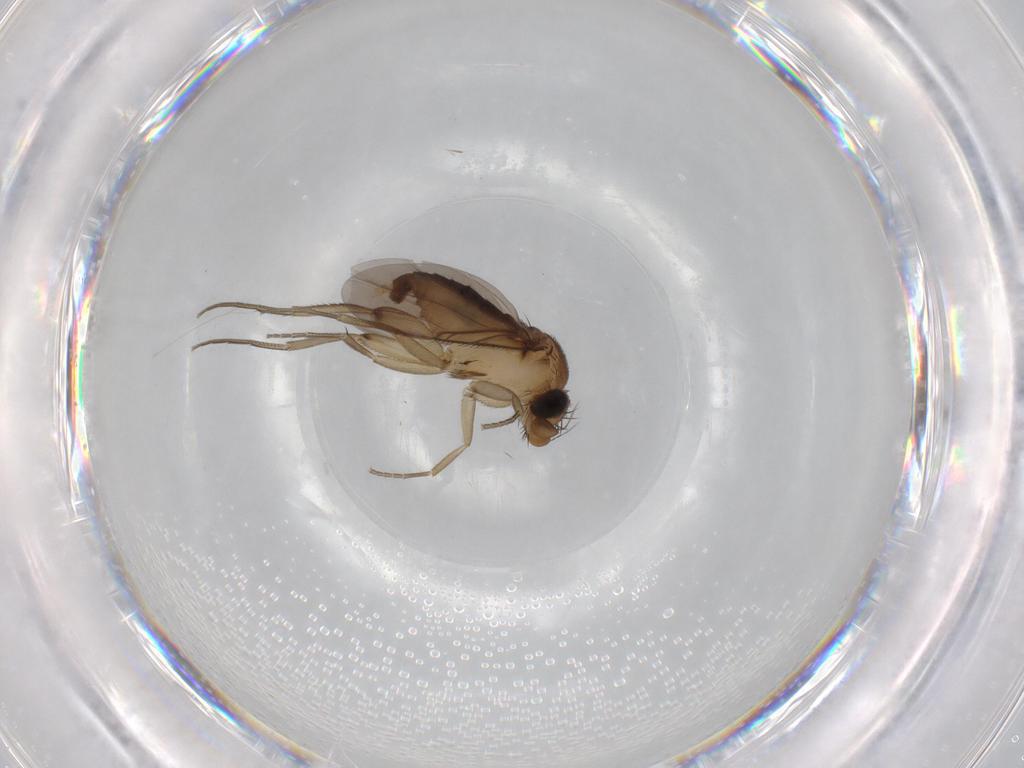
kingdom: Animalia
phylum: Arthropoda
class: Insecta
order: Diptera
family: Phoridae
